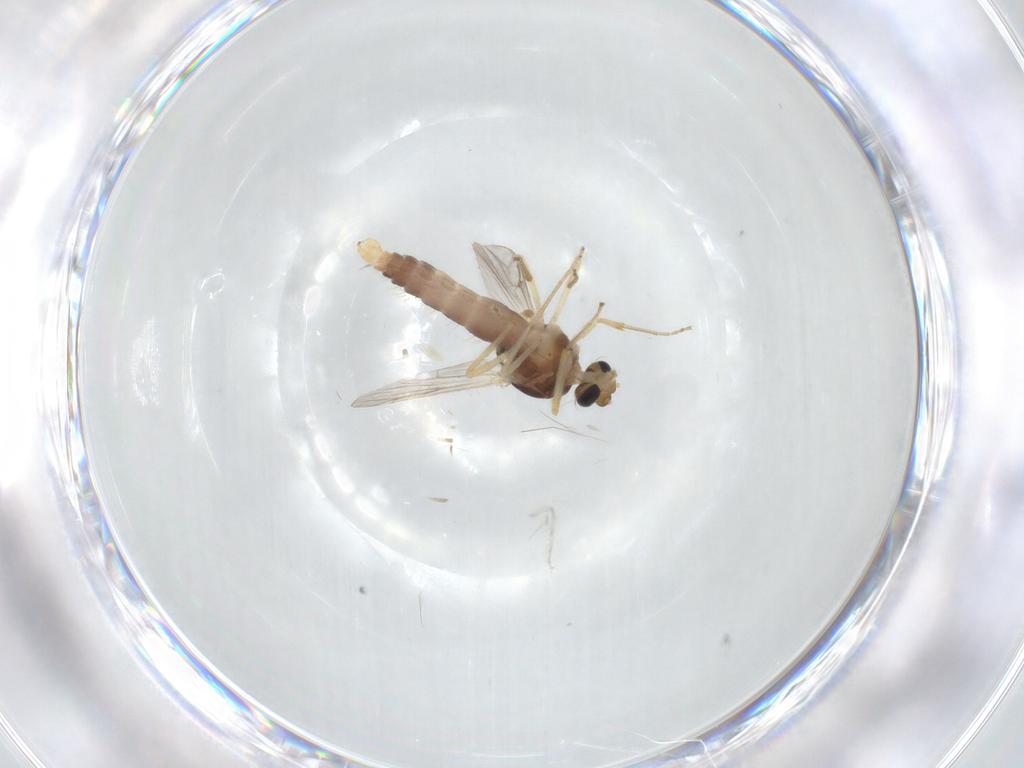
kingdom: Animalia
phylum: Arthropoda
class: Insecta
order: Diptera
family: Ceratopogonidae
